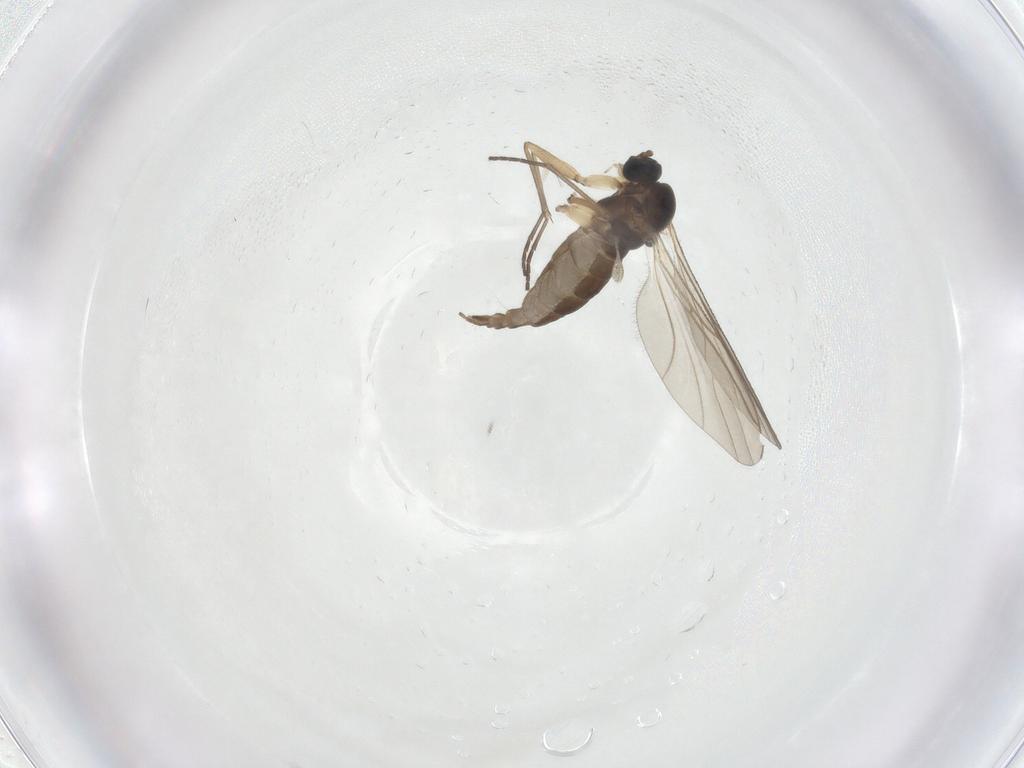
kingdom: Animalia
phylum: Arthropoda
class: Insecta
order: Diptera
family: Sciaridae
